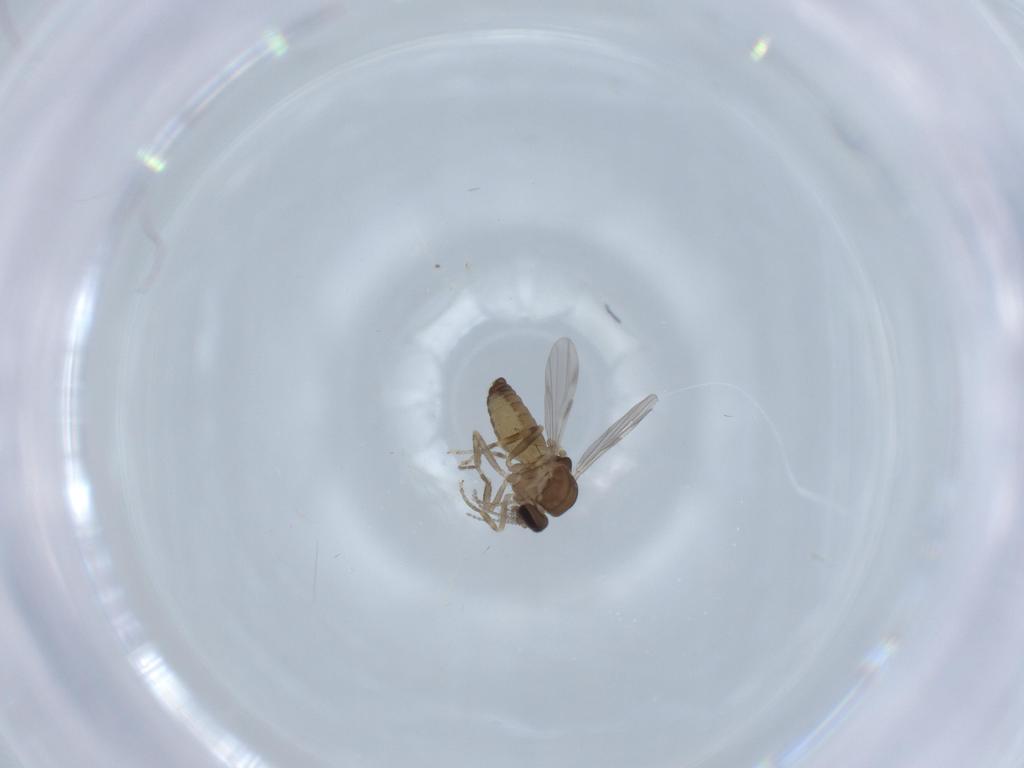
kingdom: Animalia
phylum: Arthropoda
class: Insecta
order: Diptera
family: Ceratopogonidae
